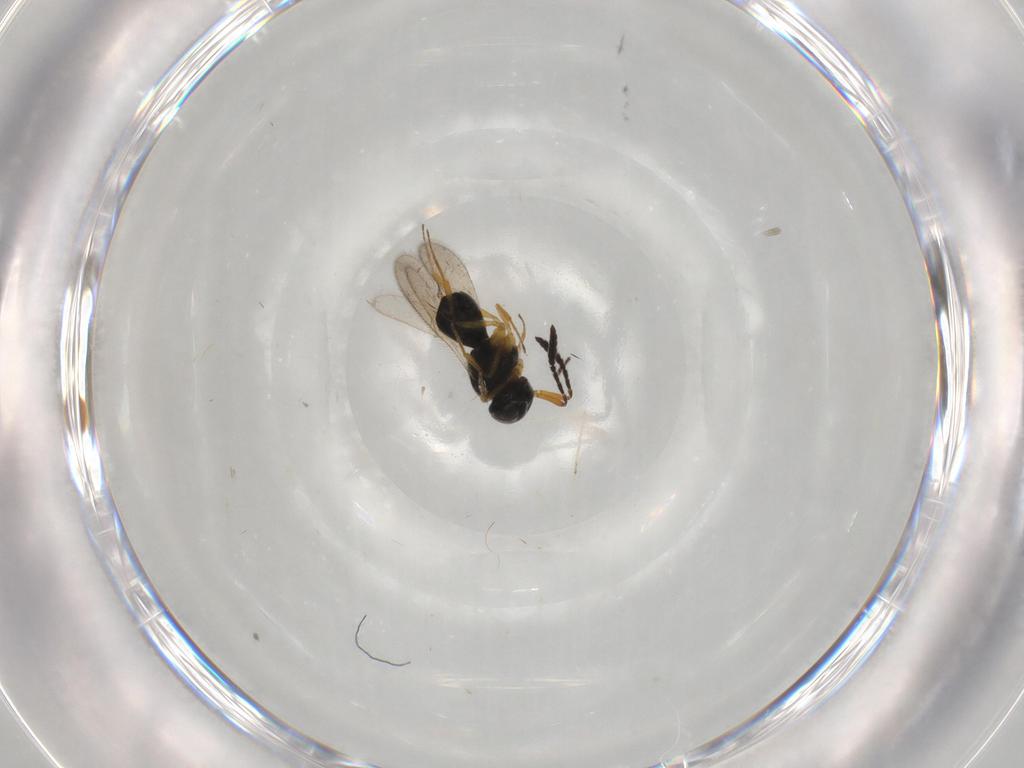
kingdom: Animalia
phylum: Arthropoda
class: Insecta
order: Hymenoptera
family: Scelionidae
